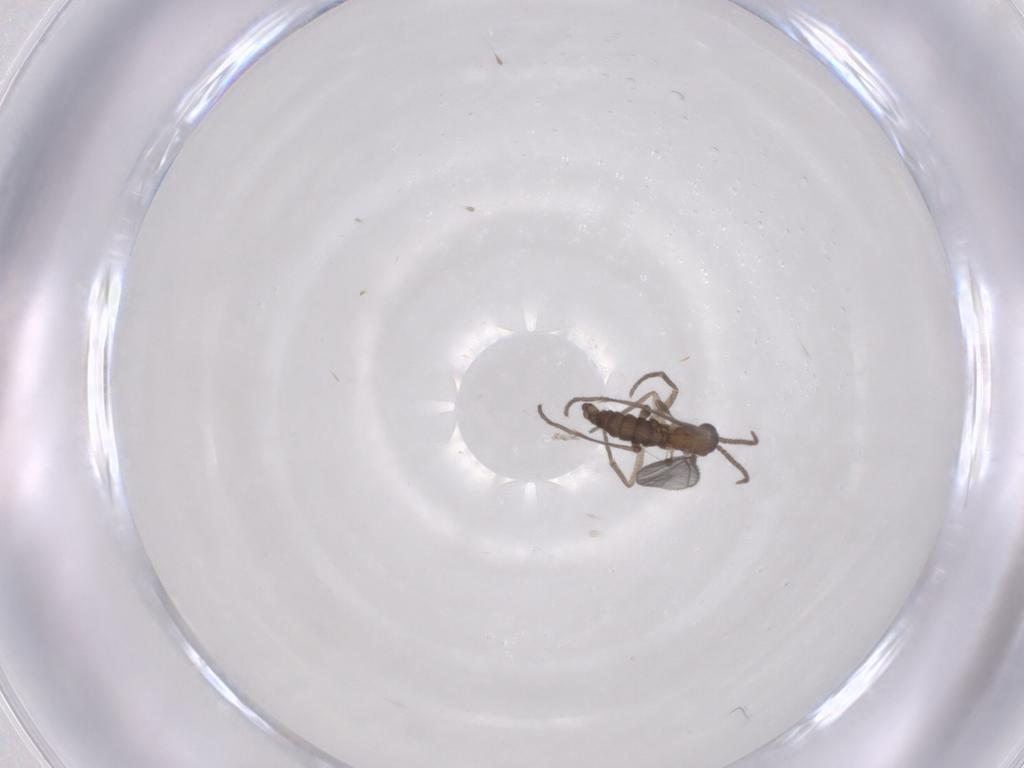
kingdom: Animalia
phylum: Arthropoda
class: Insecta
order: Diptera
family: Sciaridae
